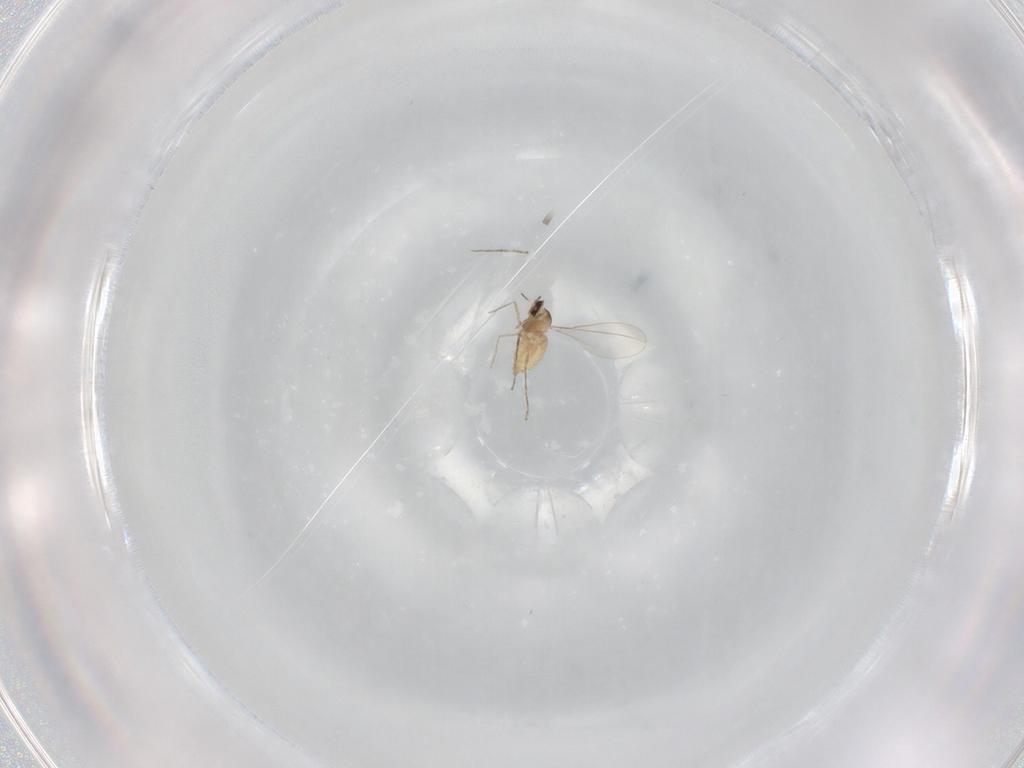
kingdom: Animalia
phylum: Arthropoda
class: Insecta
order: Diptera
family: Cecidomyiidae
